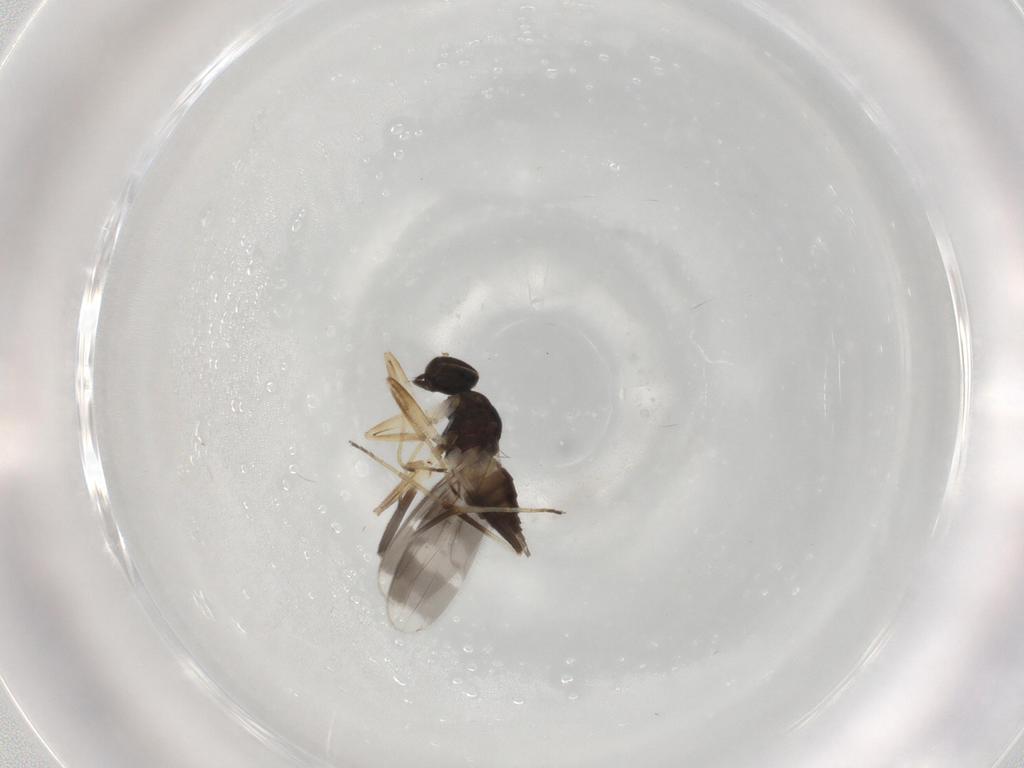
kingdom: Animalia
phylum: Arthropoda
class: Insecta
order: Diptera
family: Hybotidae
